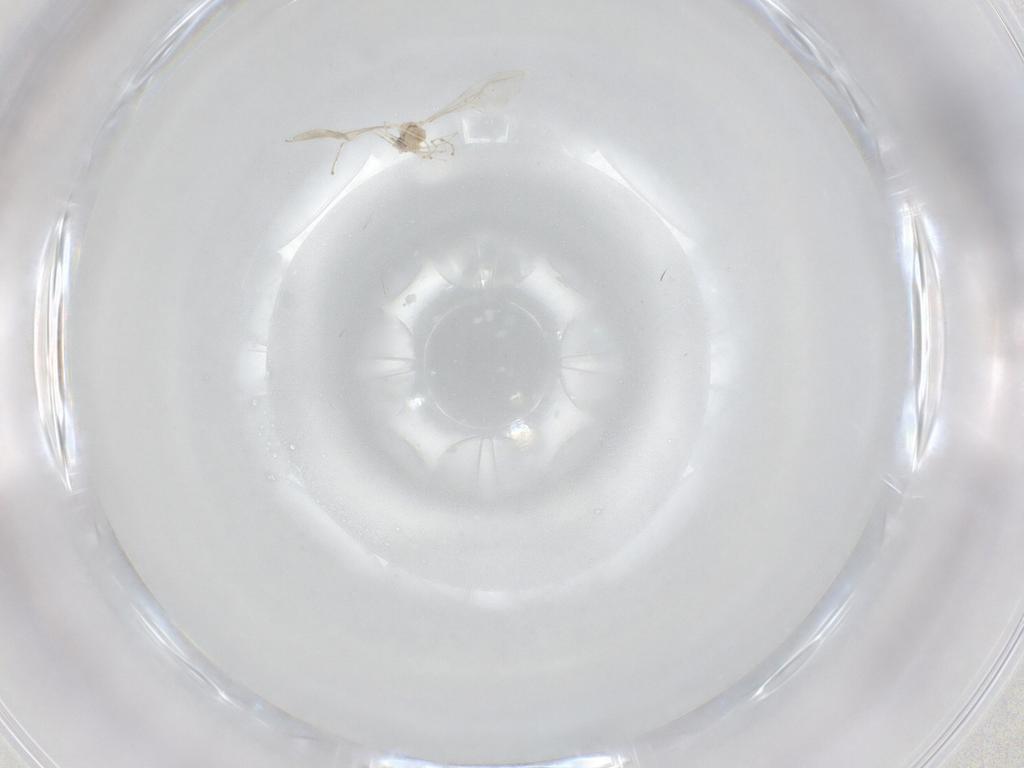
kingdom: Animalia
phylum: Arthropoda
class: Insecta
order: Diptera
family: Cecidomyiidae
